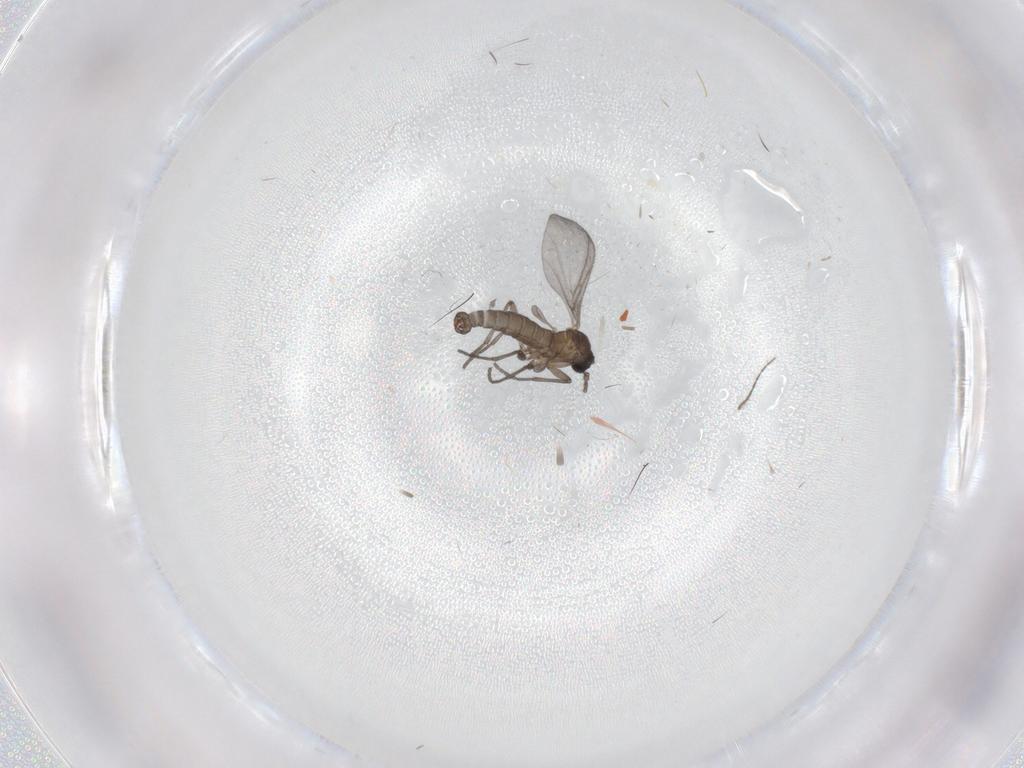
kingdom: Animalia
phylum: Arthropoda
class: Insecta
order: Diptera
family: Sciaridae
